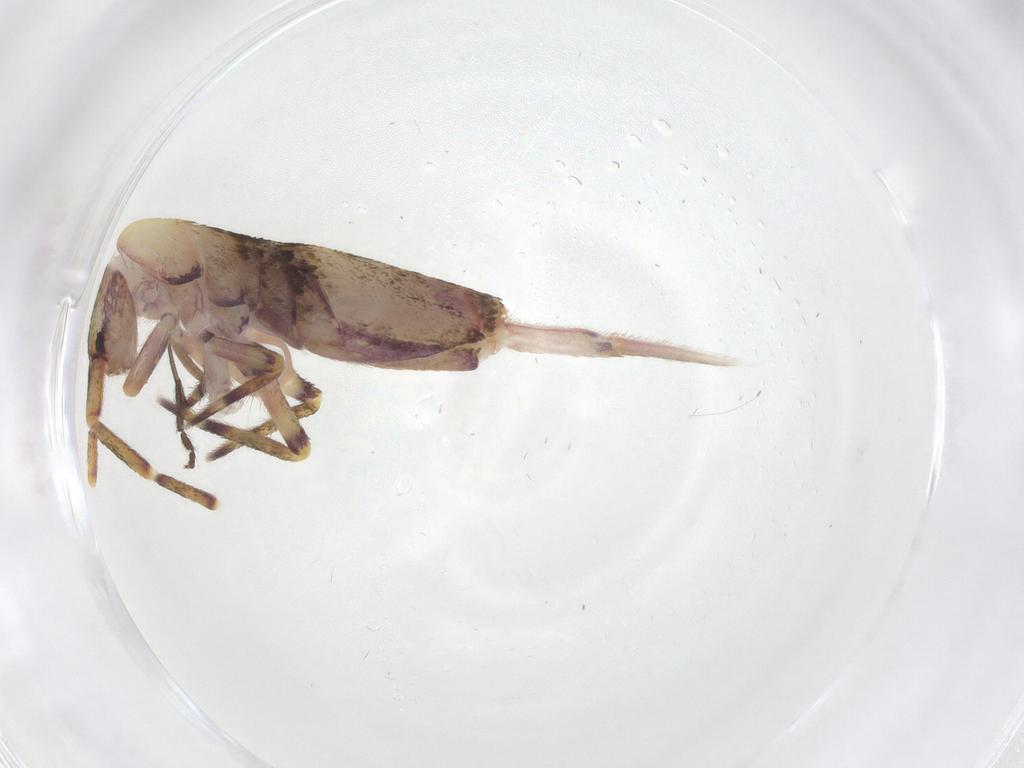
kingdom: Animalia
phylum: Arthropoda
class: Collembola
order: Entomobryomorpha
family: Entomobryidae
